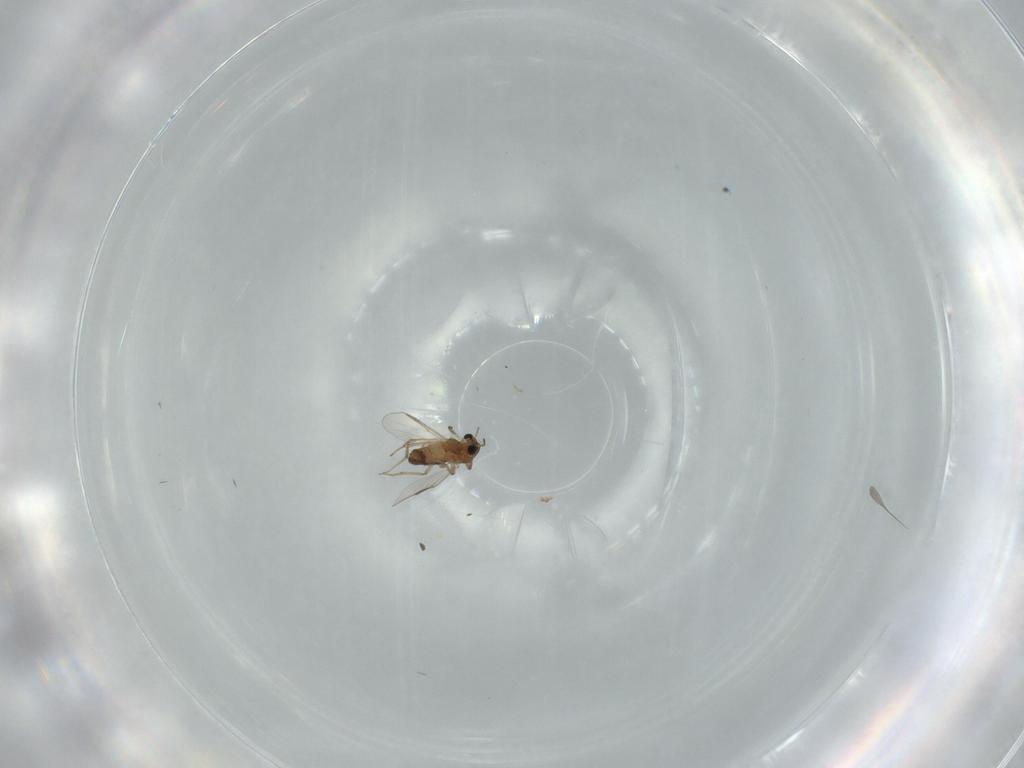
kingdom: Animalia
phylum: Arthropoda
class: Insecta
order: Diptera
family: Chironomidae
